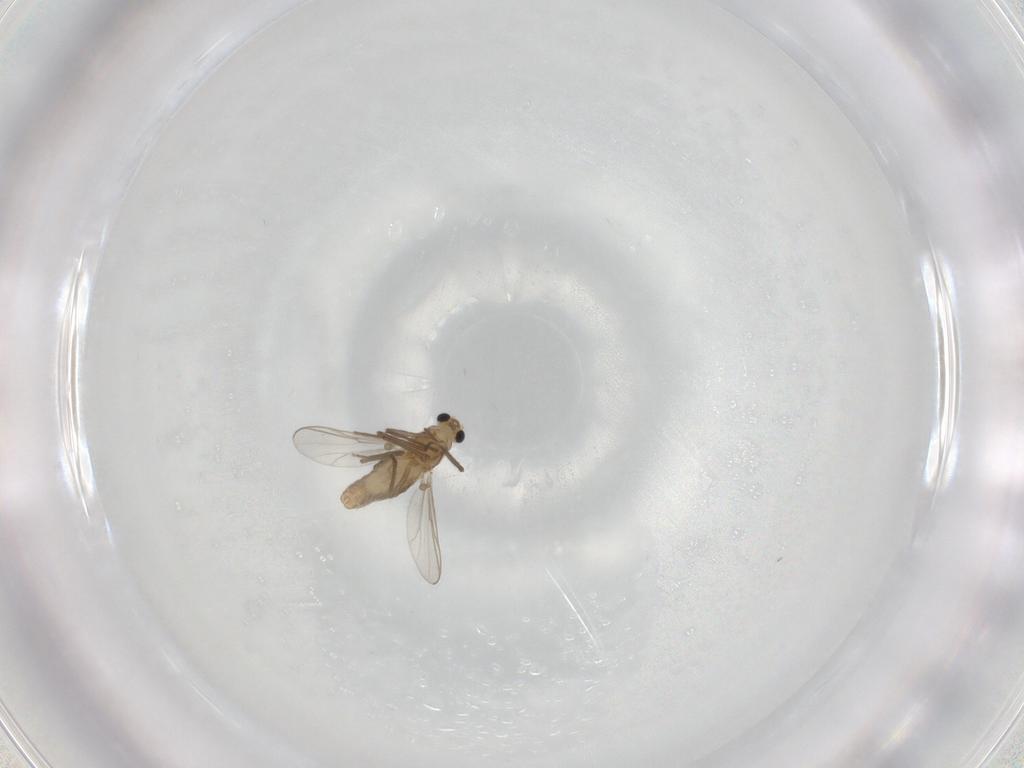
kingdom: Animalia
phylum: Arthropoda
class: Insecta
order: Diptera
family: Chironomidae
